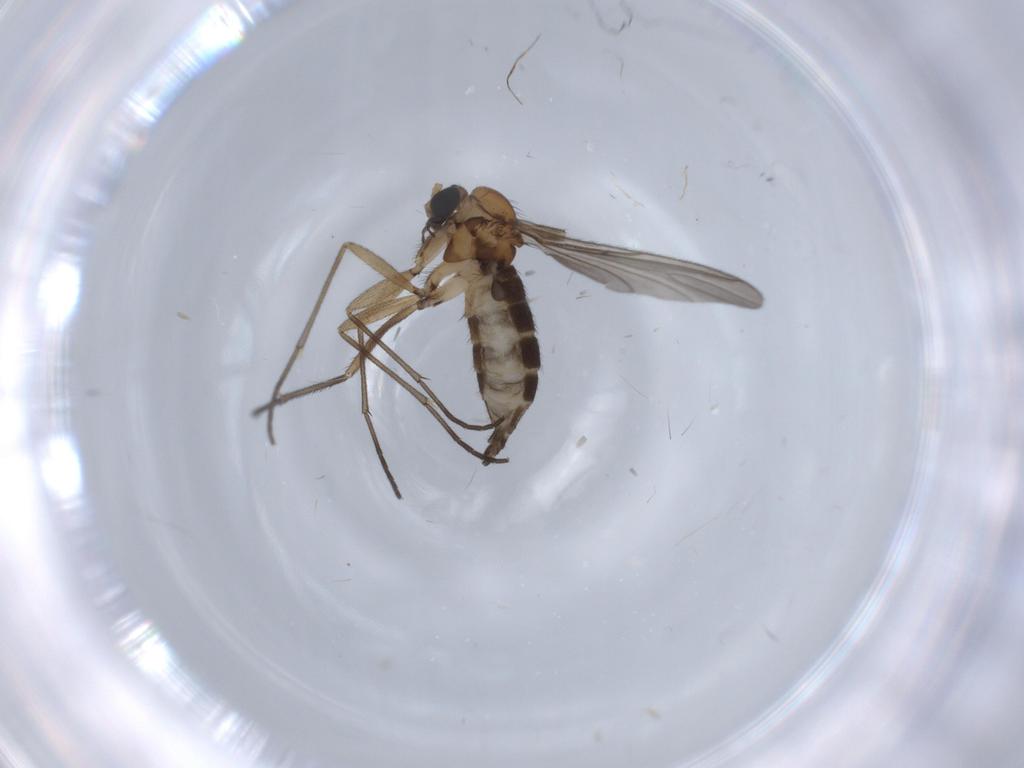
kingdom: Animalia
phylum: Arthropoda
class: Insecta
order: Diptera
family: Sciaridae
